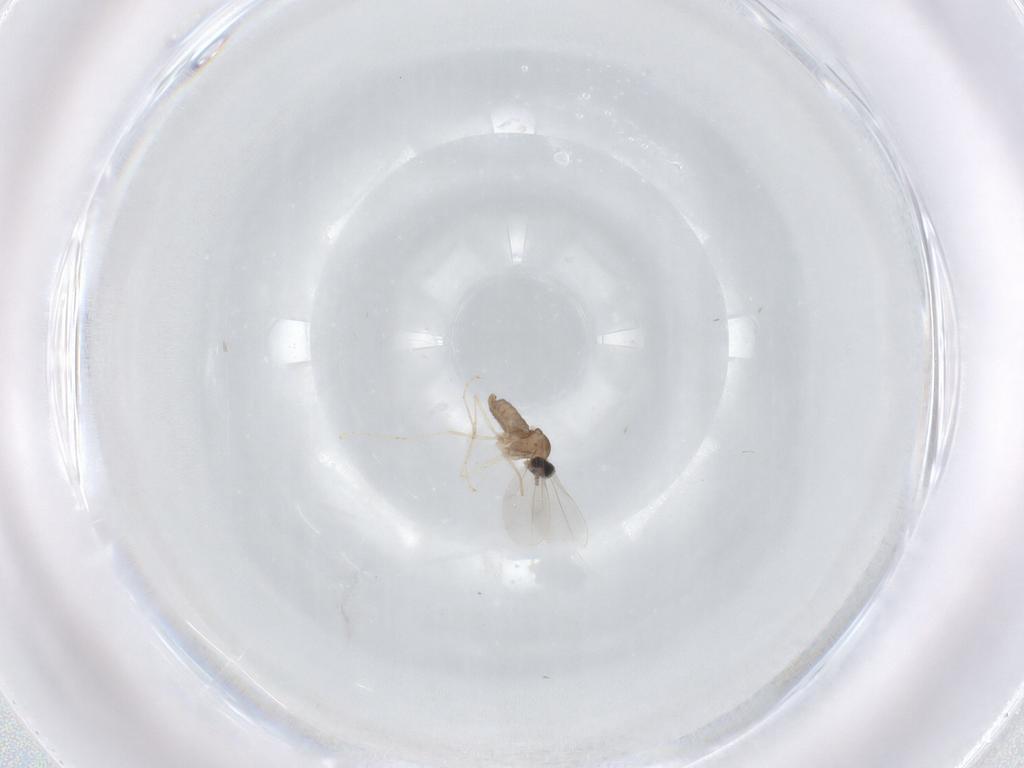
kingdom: Animalia
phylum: Arthropoda
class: Insecta
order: Diptera
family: Cecidomyiidae
